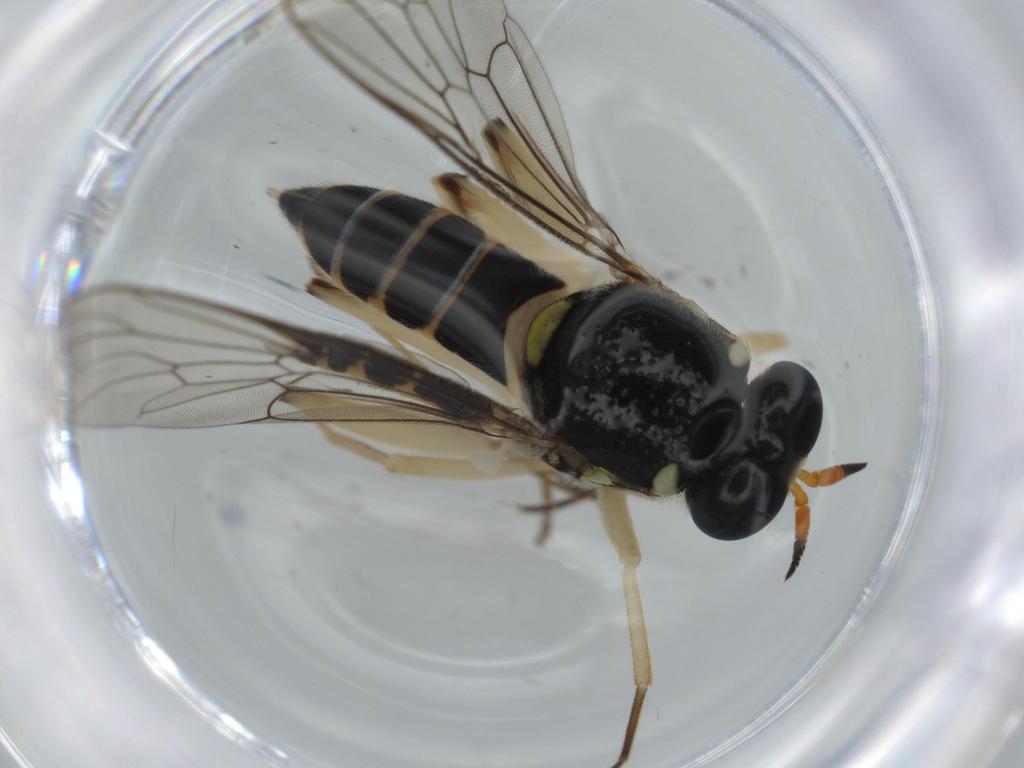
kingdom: Animalia
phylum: Arthropoda
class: Insecta
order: Diptera
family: Milichiidae
